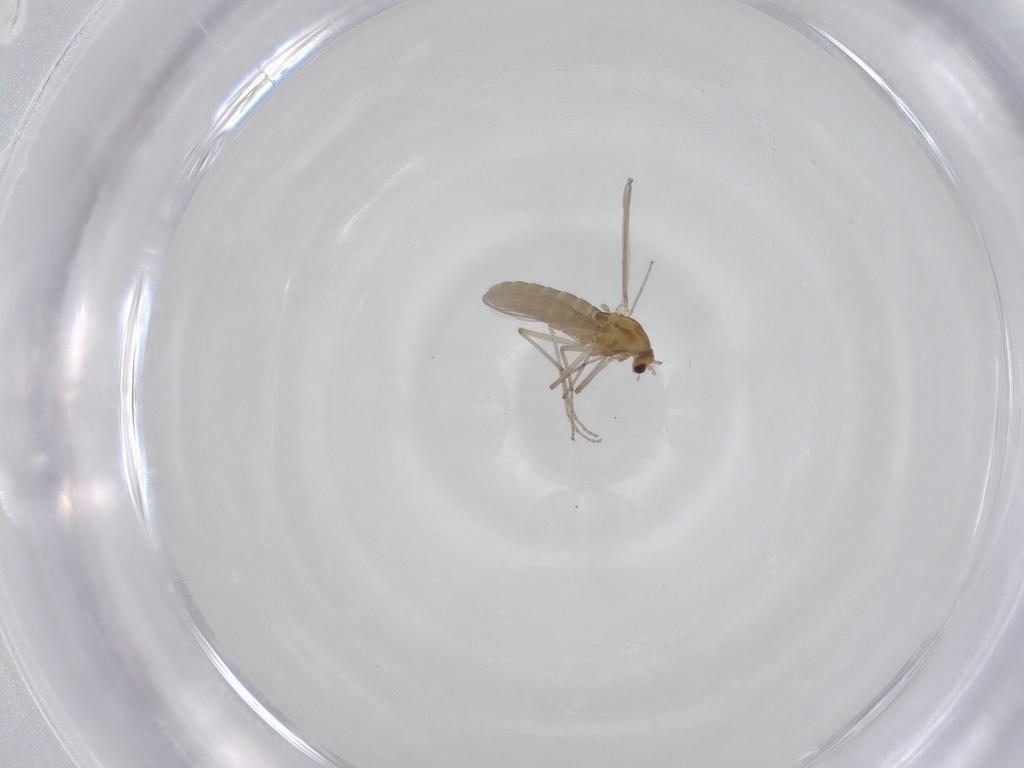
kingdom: Animalia
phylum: Arthropoda
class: Insecta
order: Diptera
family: Chironomidae
